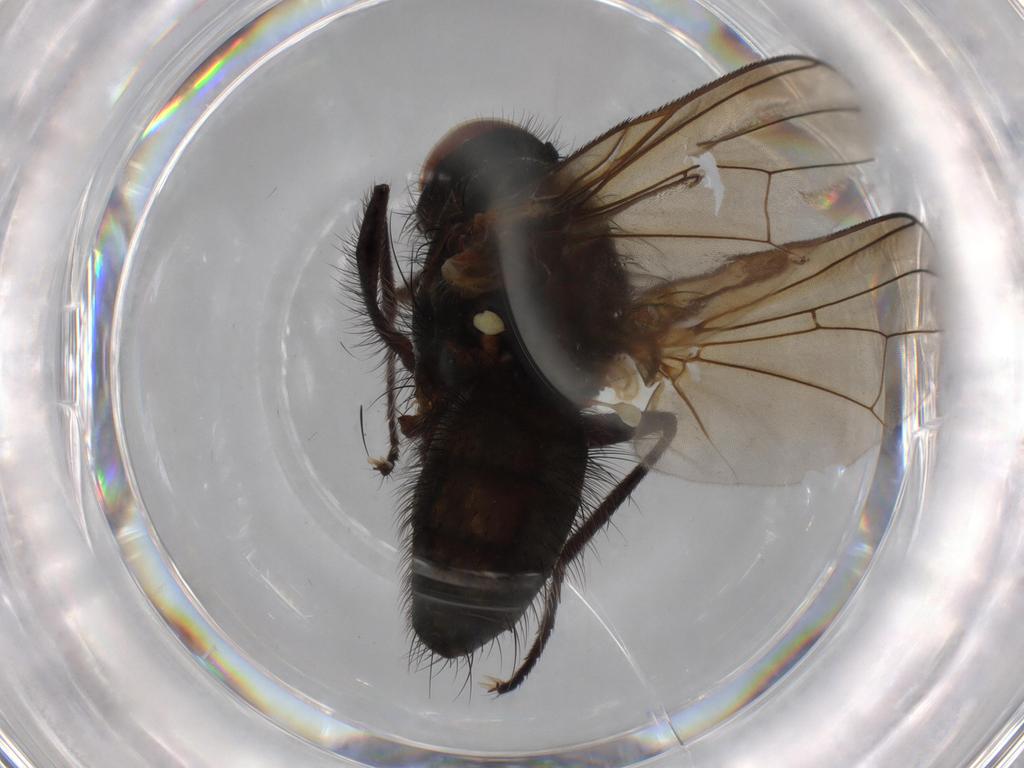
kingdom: Animalia
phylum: Arthropoda
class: Insecta
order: Diptera
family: Anthomyiidae
